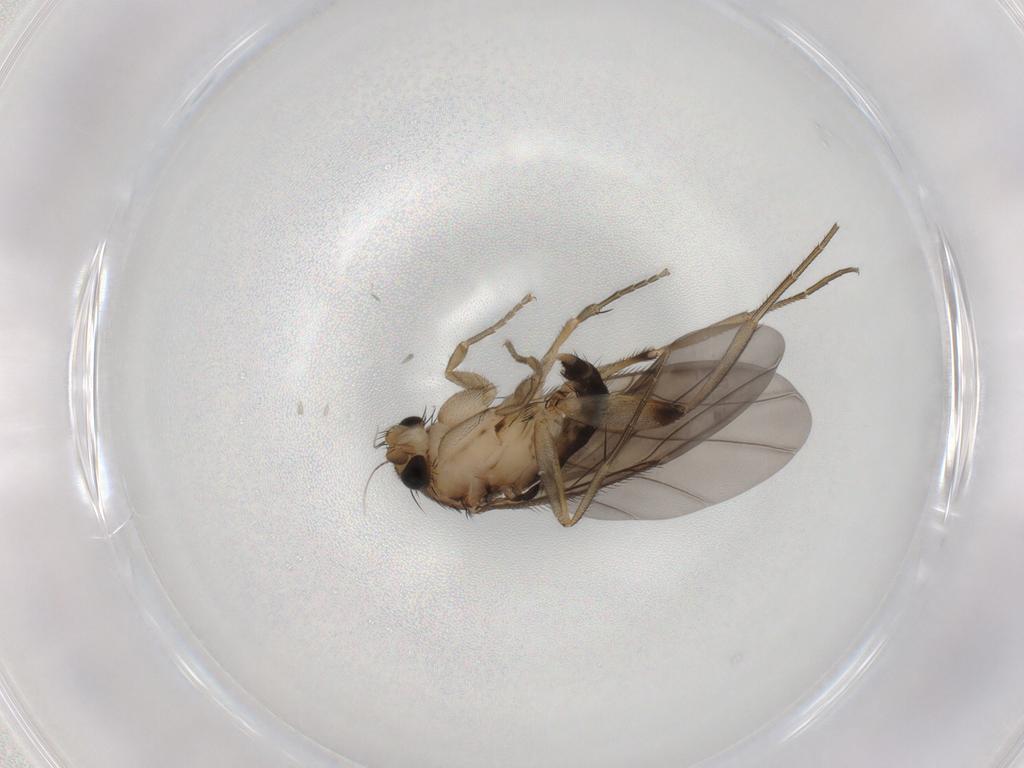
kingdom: Animalia
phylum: Arthropoda
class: Insecta
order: Diptera
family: Phoridae
